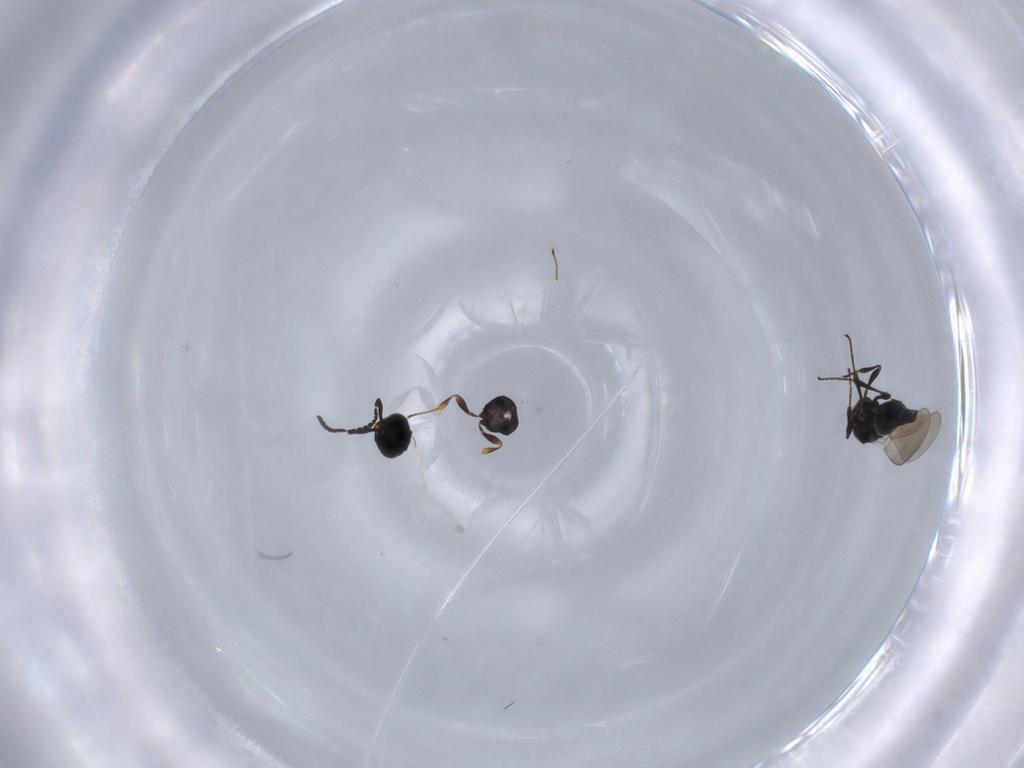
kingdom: Animalia
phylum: Arthropoda
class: Insecta
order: Hymenoptera
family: Platygastridae
